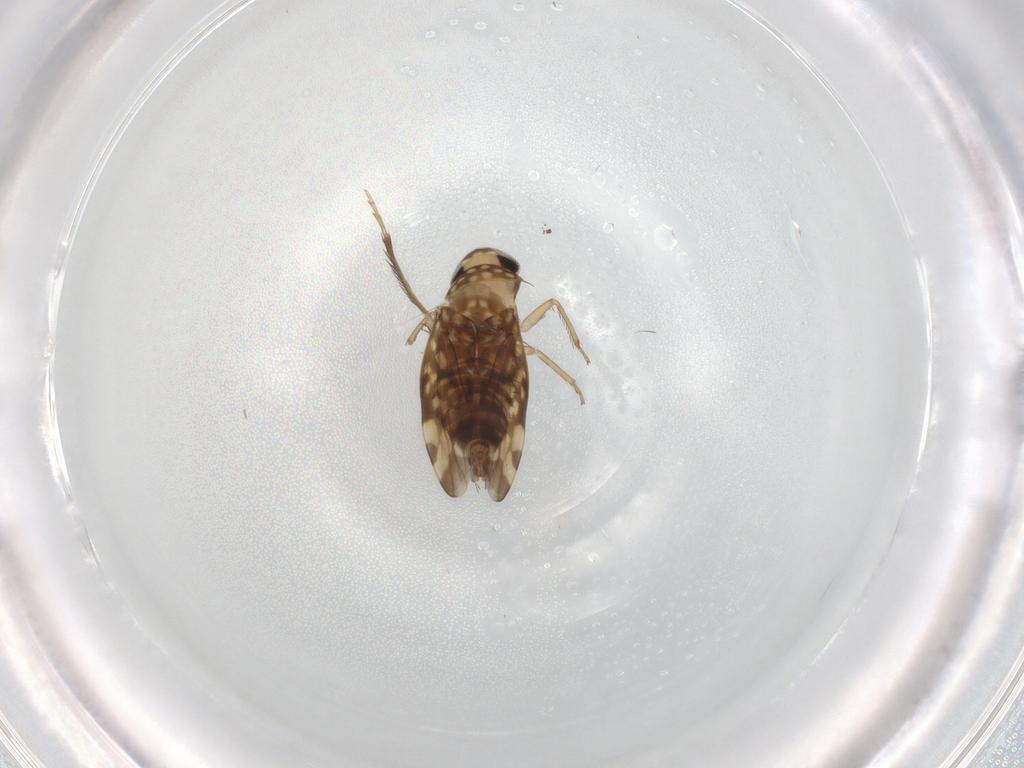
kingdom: Animalia
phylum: Arthropoda
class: Insecta
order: Hemiptera
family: Cicadellidae
